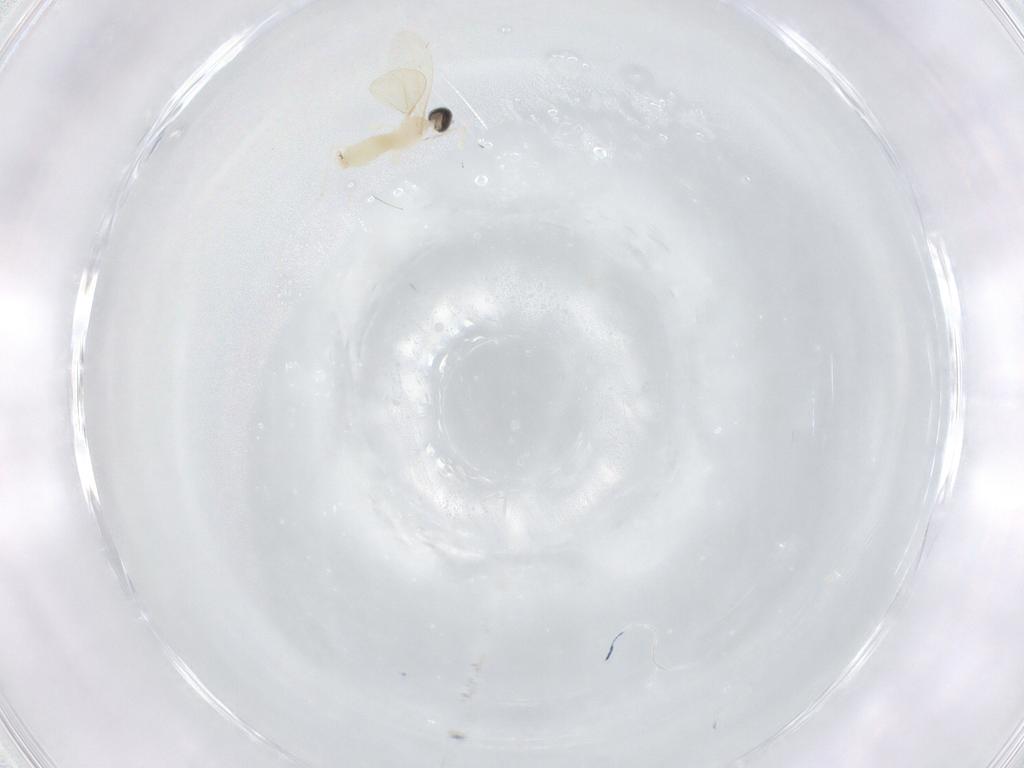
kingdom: Animalia
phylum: Arthropoda
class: Insecta
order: Diptera
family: Cecidomyiidae
